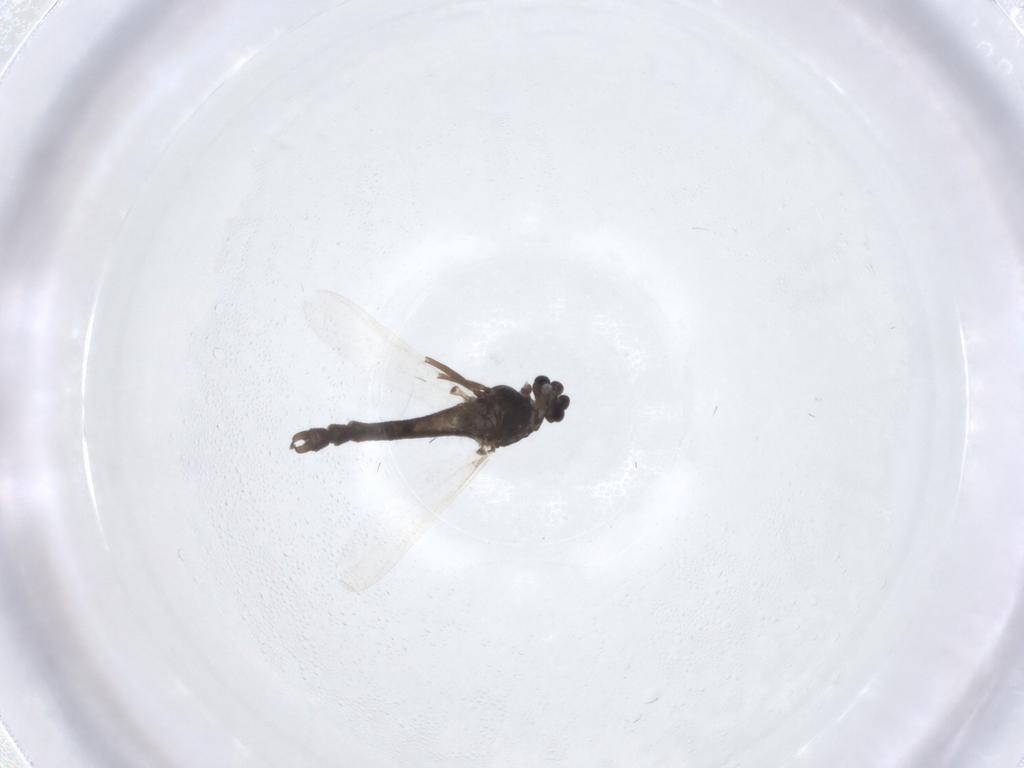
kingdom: Animalia
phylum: Arthropoda
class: Insecta
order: Diptera
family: Chironomidae
